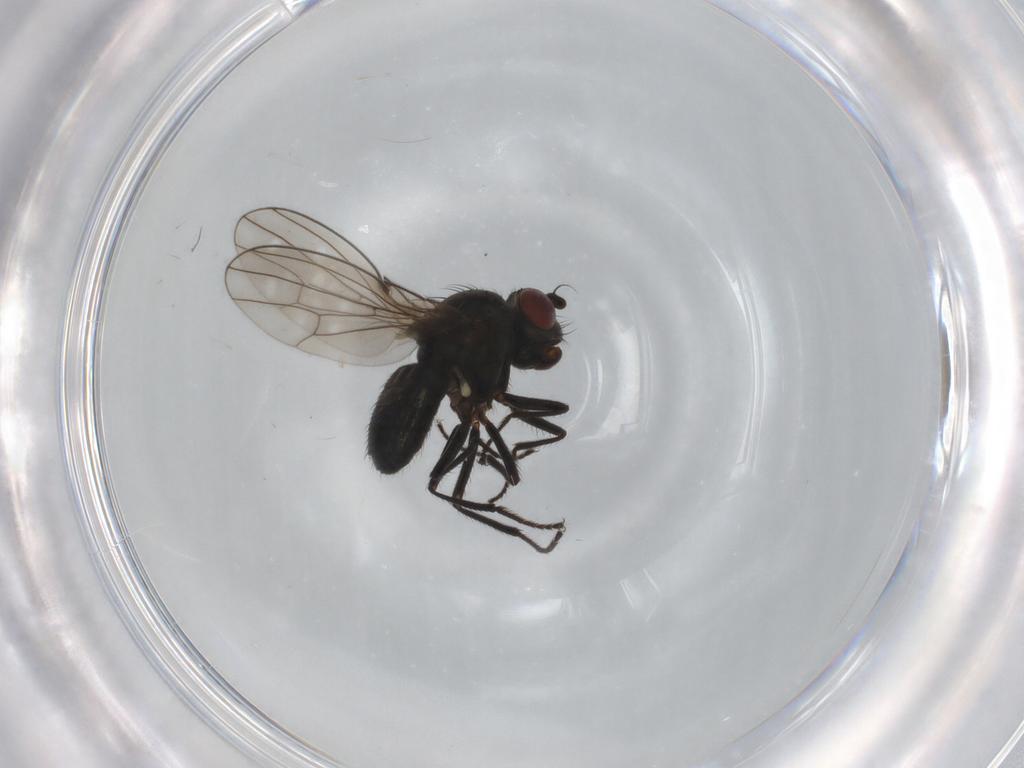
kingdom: Animalia
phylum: Arthropoda
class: Insecta
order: Diptera
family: Ephydridae
